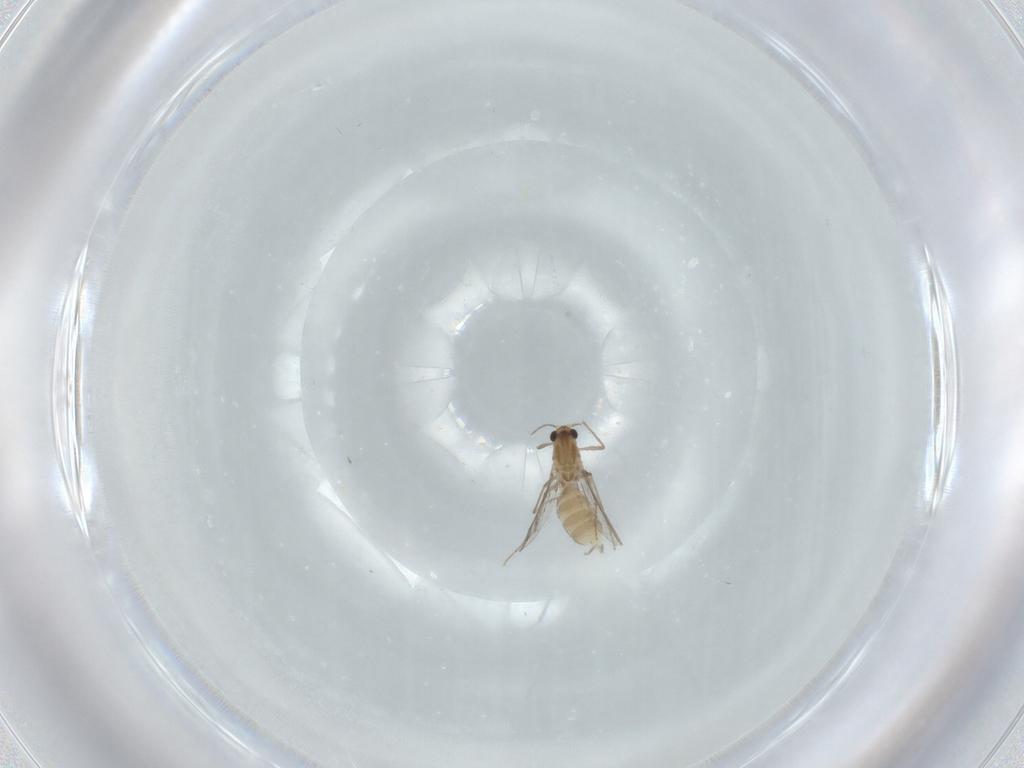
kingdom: Animalia
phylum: Arthropoda
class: Insecta
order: Diptera
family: Chironomidae
